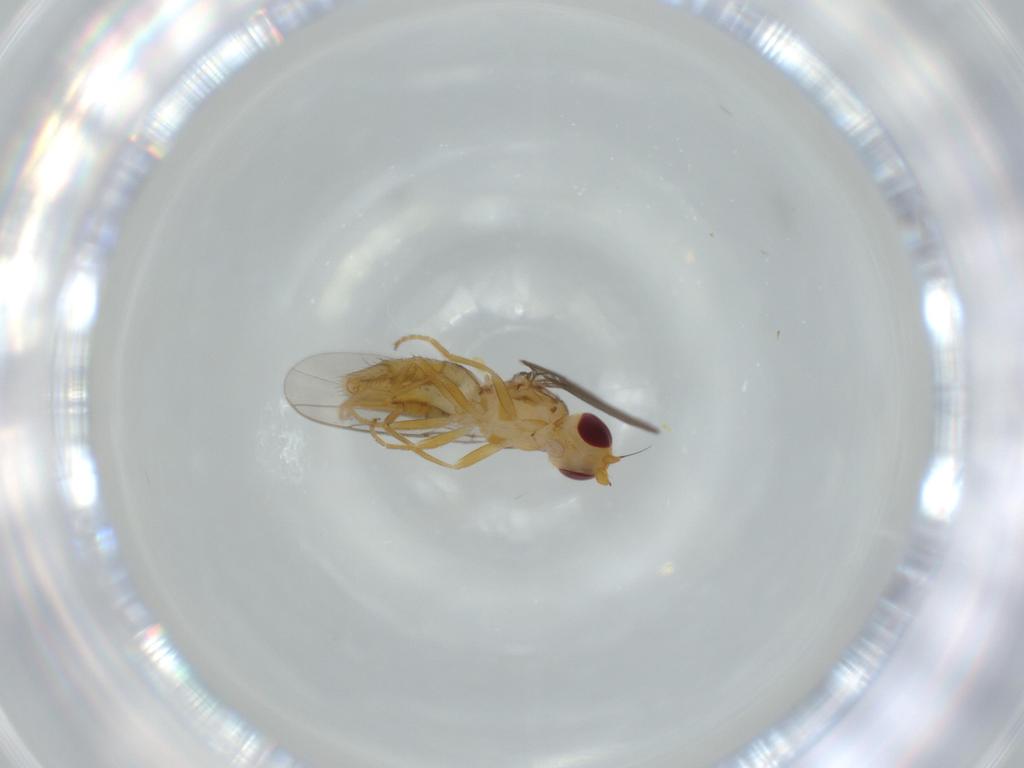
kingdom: Animalia
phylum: Arthropoda
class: Insecta
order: Diptera
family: Chloropidae
